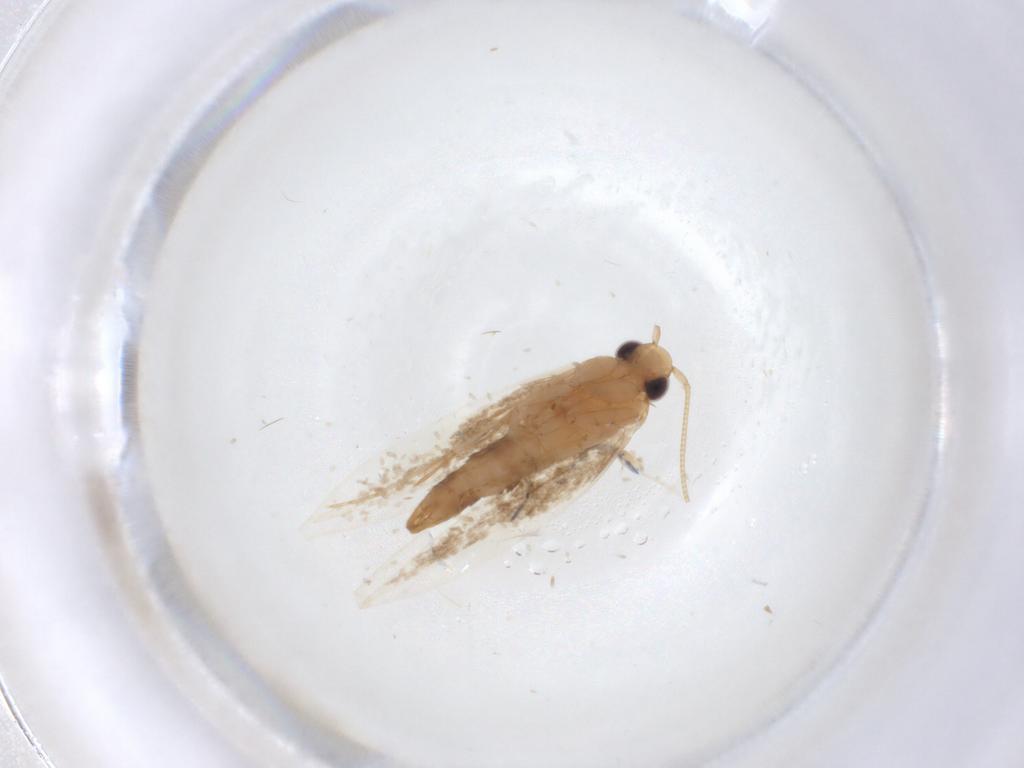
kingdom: Animalia
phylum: Arthropoda
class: Insecta
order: Lepidoptera
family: Tineidae
